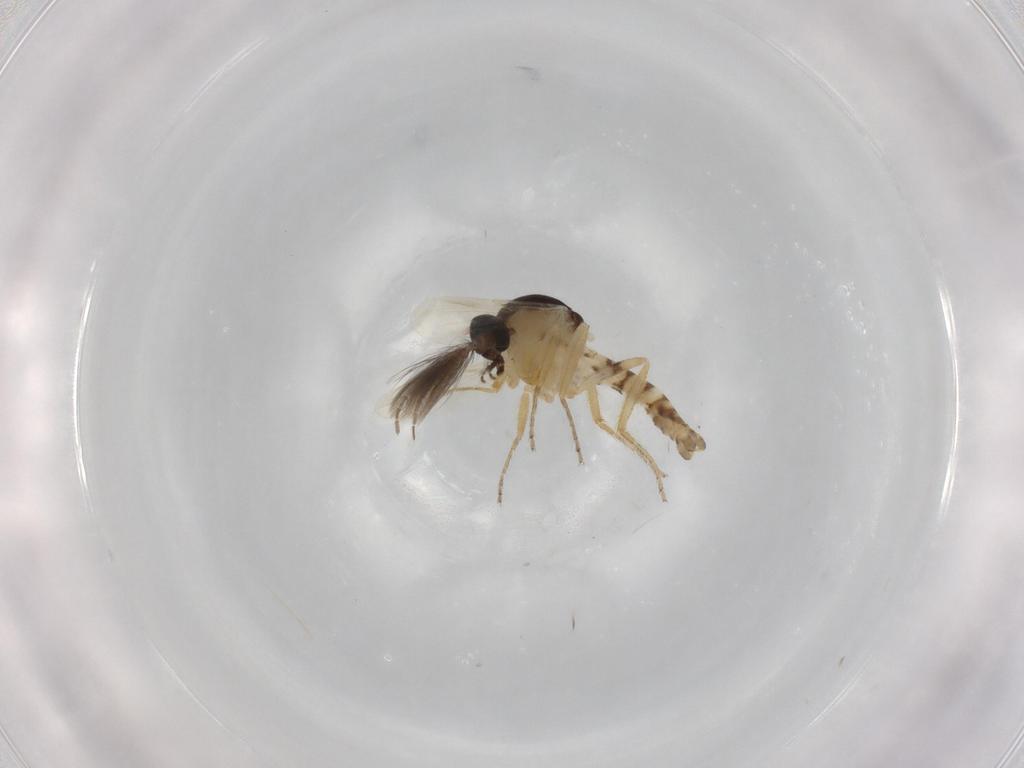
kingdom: Animalia
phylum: Arthropoda
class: Insecta
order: Diptera
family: Ceratopogonidae
